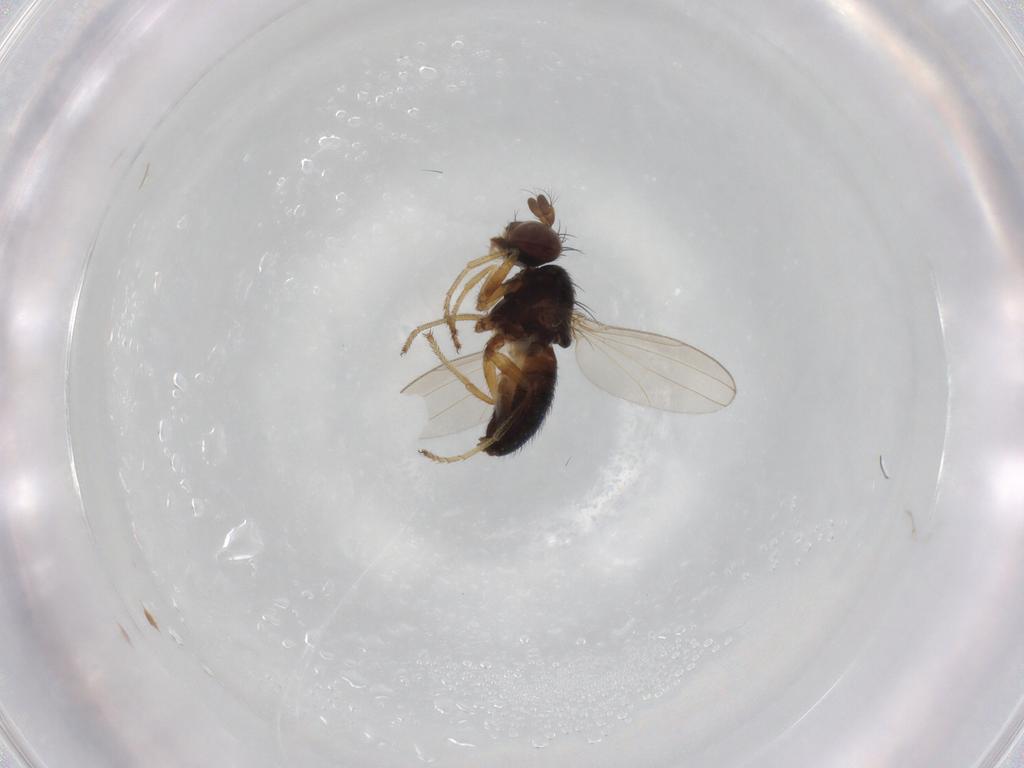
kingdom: Animalia
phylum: Arthropoda
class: Insecta
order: Diptera
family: Ephydridae
